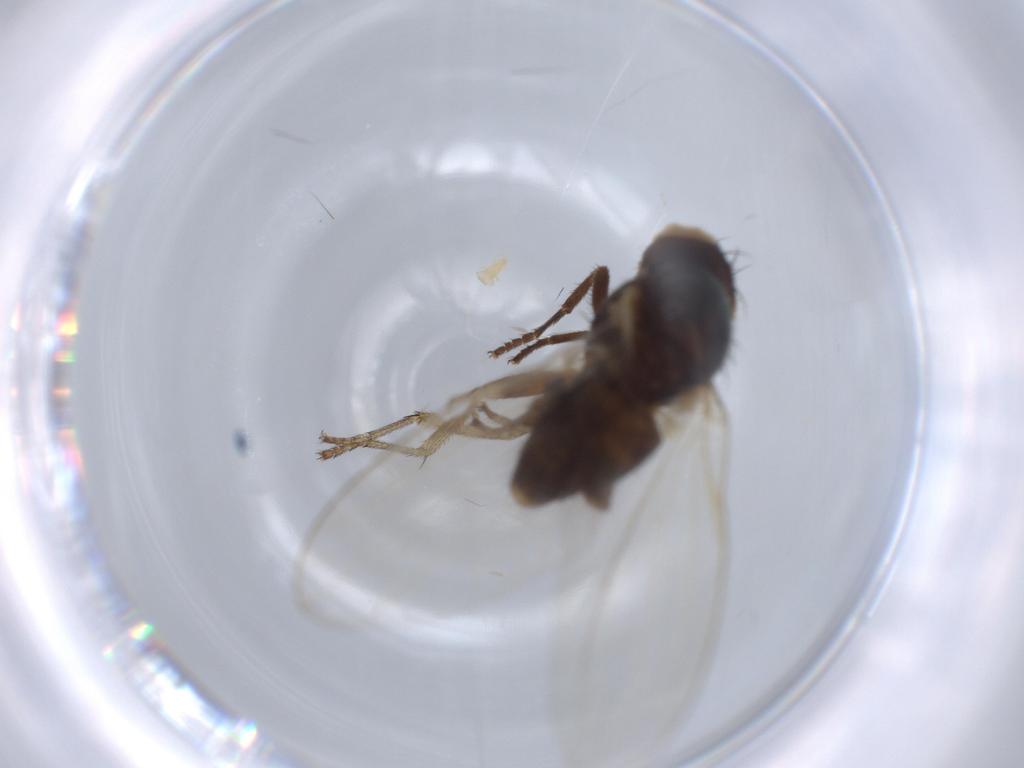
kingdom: Animalia
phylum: Arthropoda
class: Insecta
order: Diptera
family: Lauxaniidae
